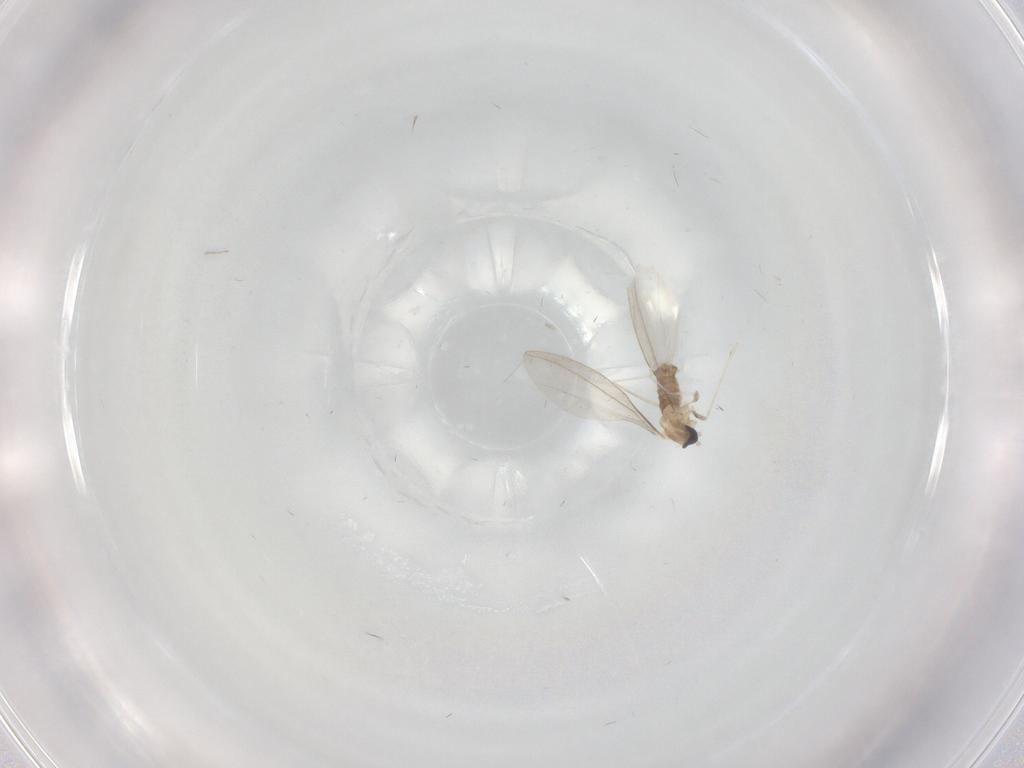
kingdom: Animalia
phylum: Arthropoda
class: Insecta
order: Diptera
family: Cecidomyiidae
